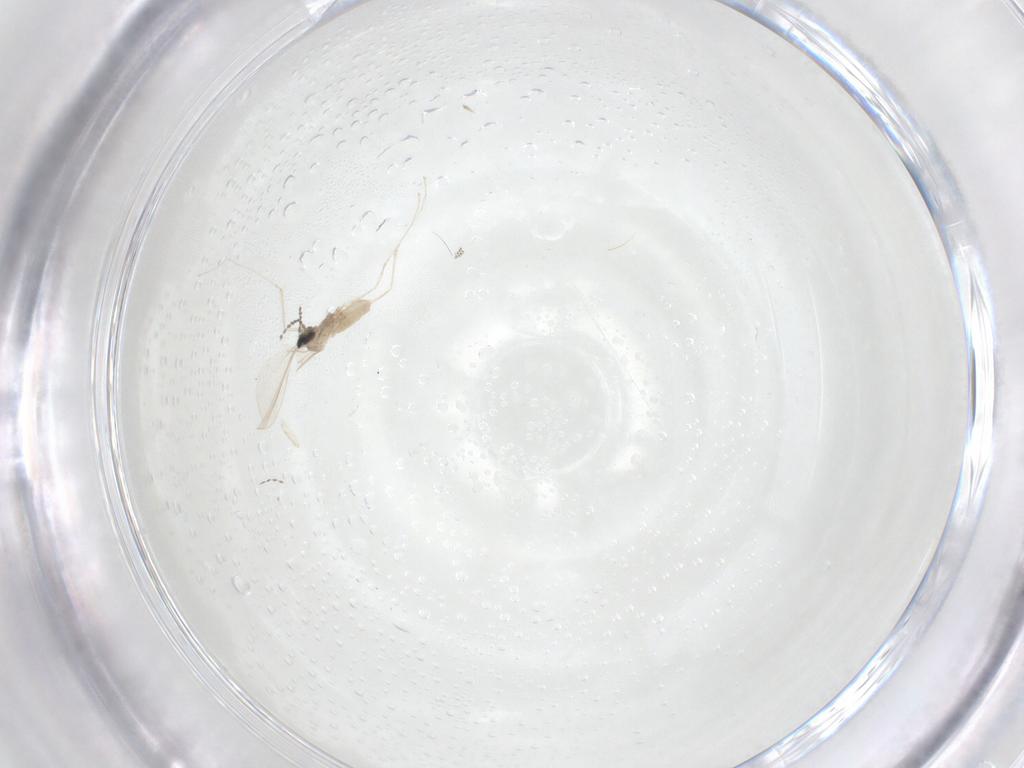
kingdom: Animalia
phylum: Arthropoda
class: Insecta
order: Diptera
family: Cecidomyiidae
